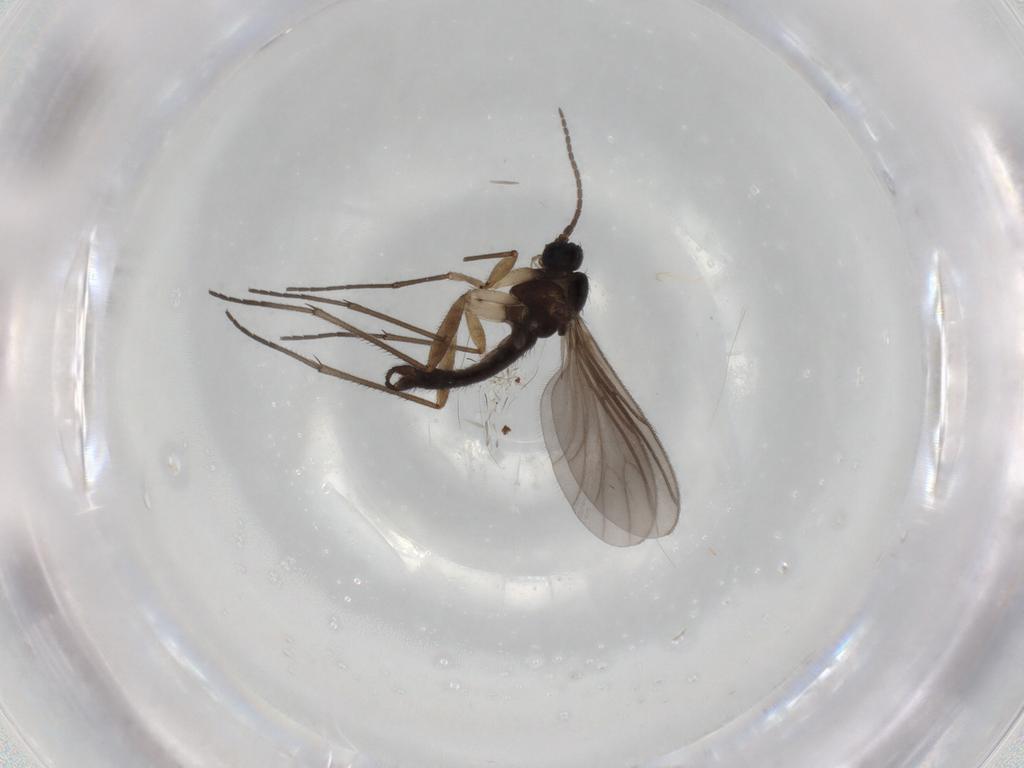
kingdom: Animalia
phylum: Arthropoda
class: Insecta
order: Diptera
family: Sciaridae
